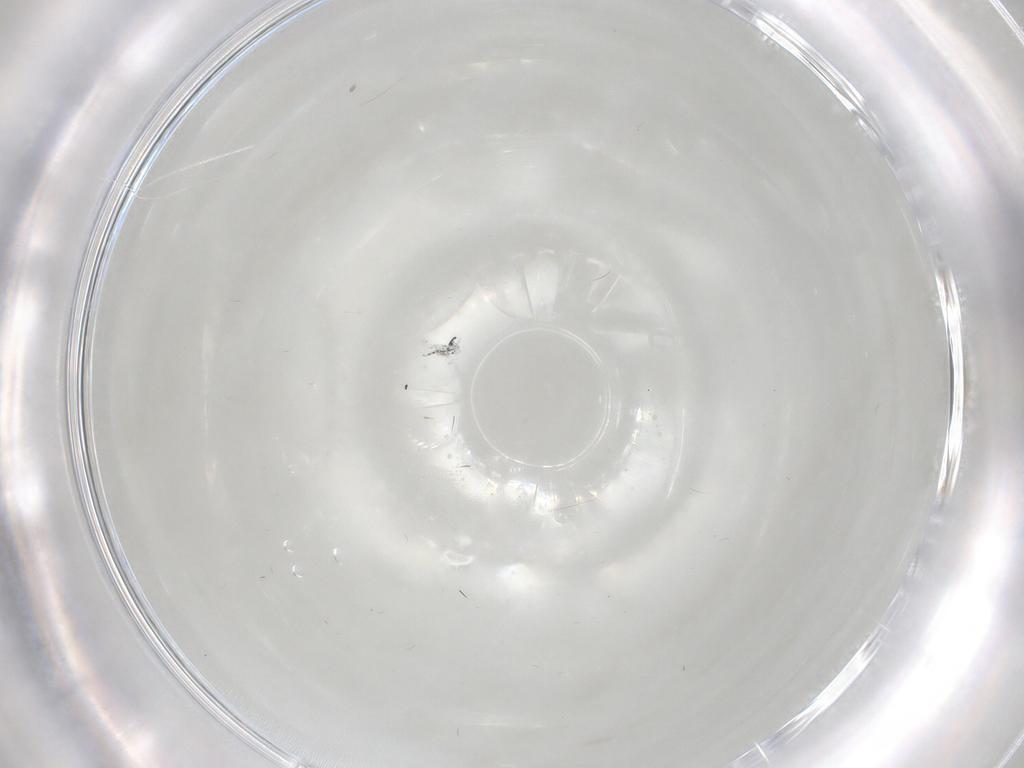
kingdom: Animalia
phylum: Arthropoda
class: Insecta
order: Diptera
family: Drosophilidae
